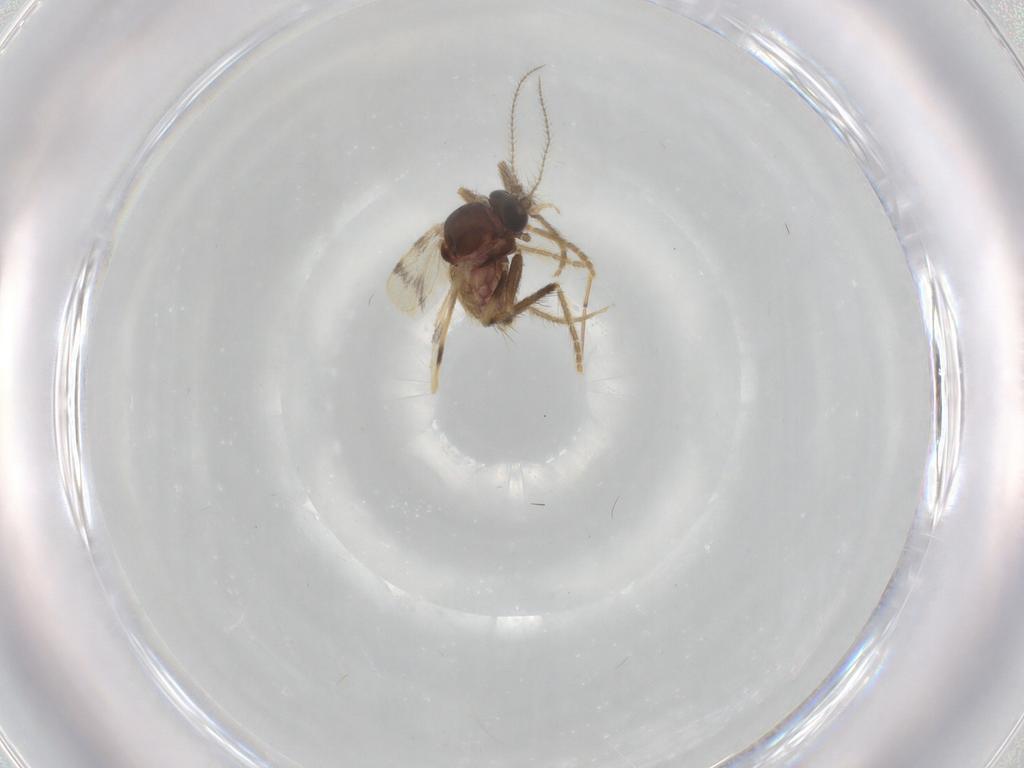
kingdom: Animalia
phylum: Arthropoda
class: Insecta
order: Diptera
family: Corethrellidae
